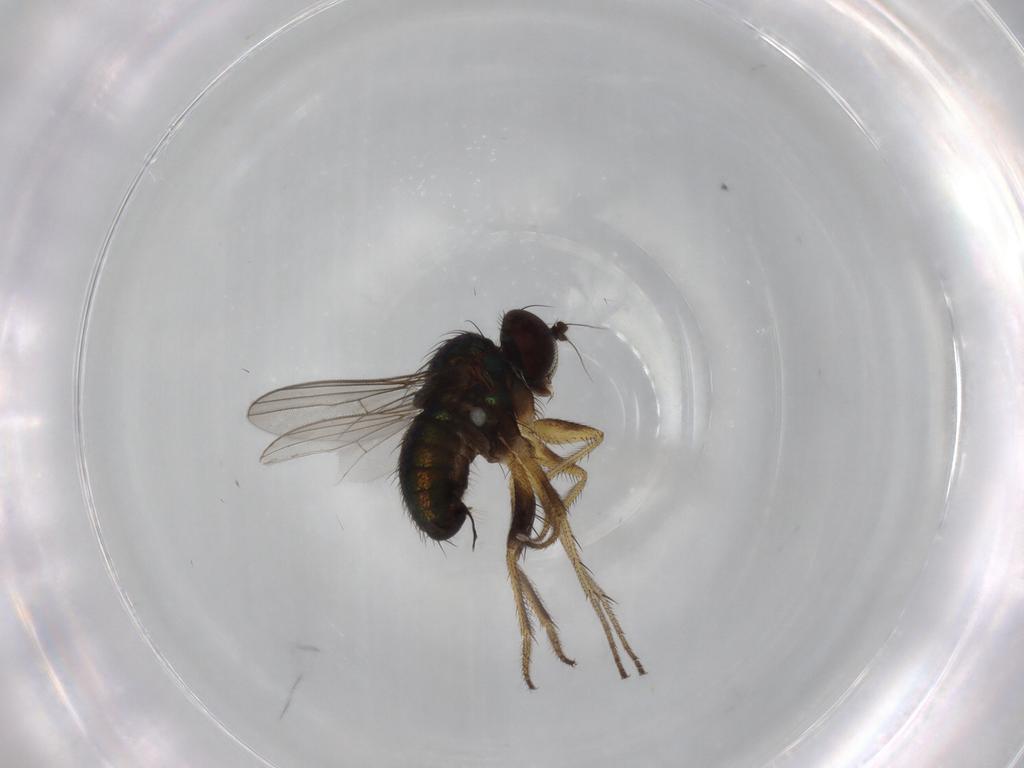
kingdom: Animalia
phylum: Arthropoda
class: Insecta
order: Diptera
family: Dolichopodidae
